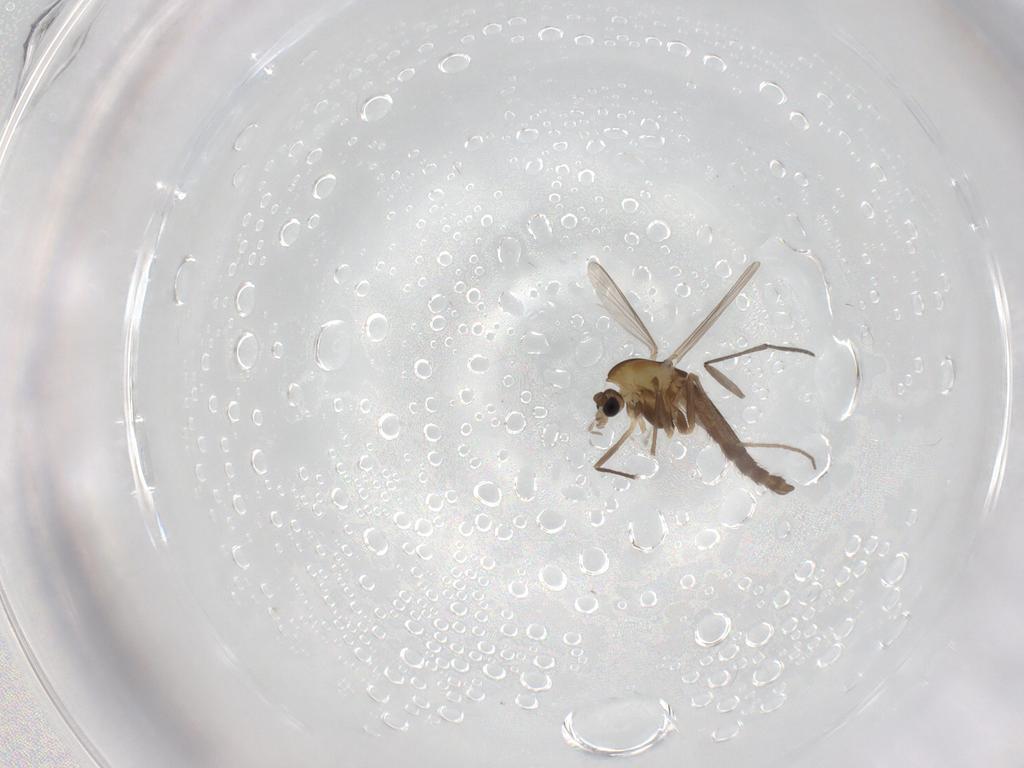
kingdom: Animalia
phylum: Arthropoda
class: Insecta
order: Diptera
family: Chironomidae
